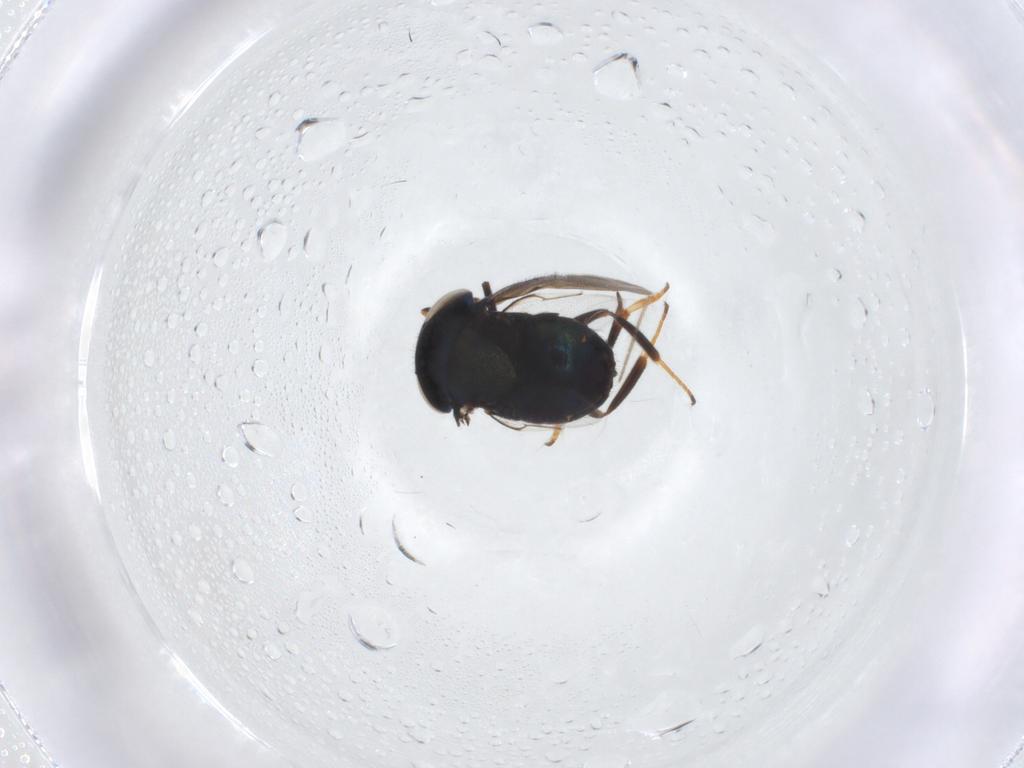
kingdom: Animalia
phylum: Arthropoda
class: Insecta
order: Hymenoptera
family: Encyrtidae
